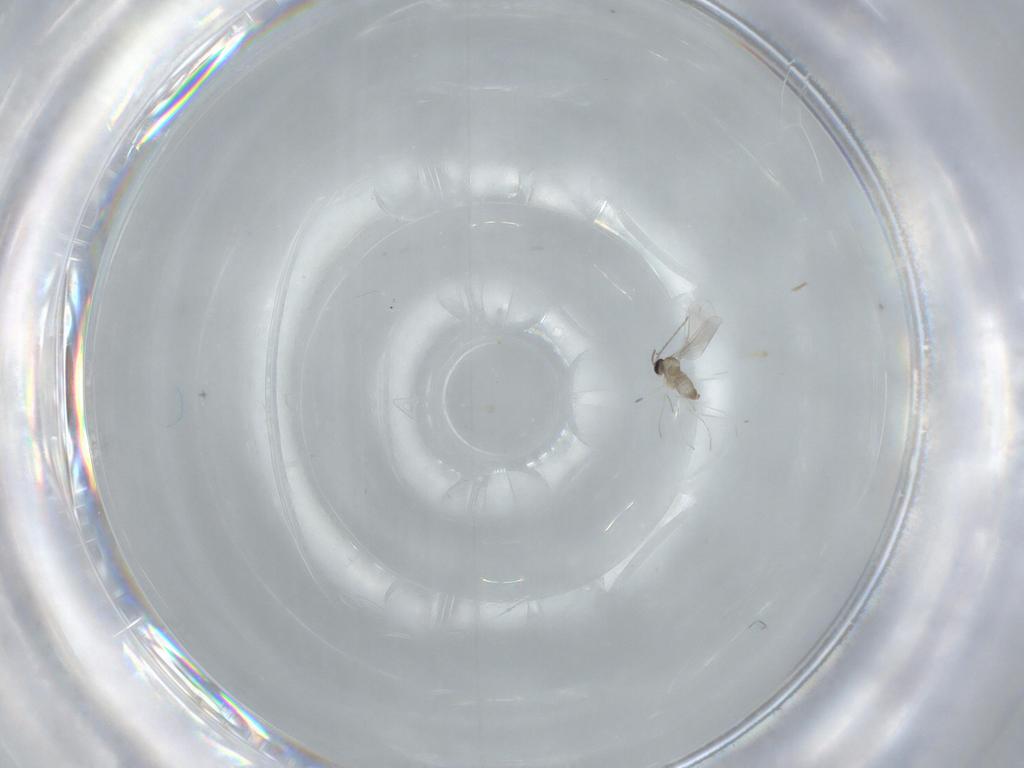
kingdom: Animalia
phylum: Arthropoda
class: Insecta
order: Diptera
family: Cecidomyiidae
